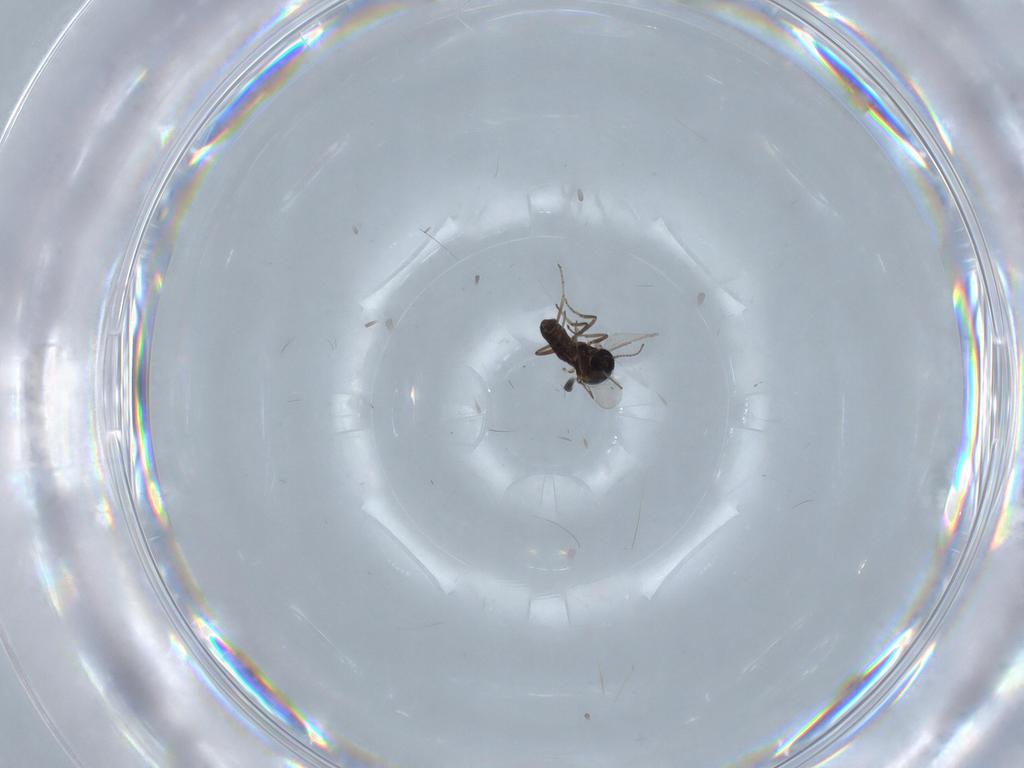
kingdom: Animalia
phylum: Arthropoda
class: Insecta
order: Diptera
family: Ceratopogonidae
